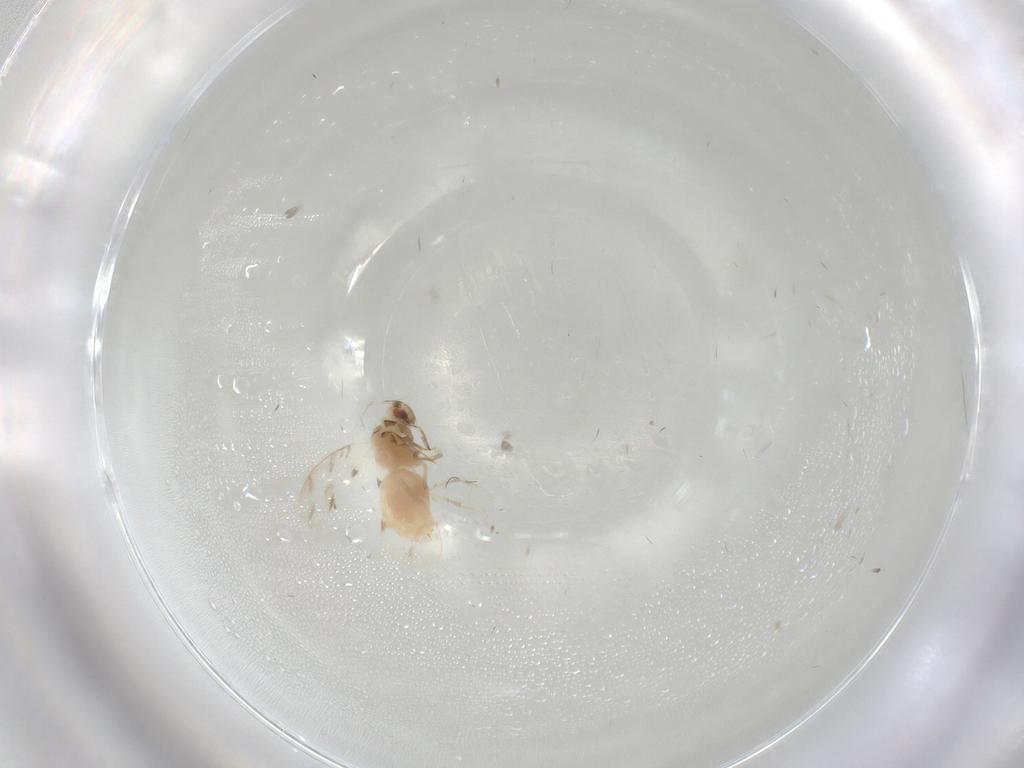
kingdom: Animalia
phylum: Arthropoda
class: Insecta
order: Hemiptera
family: Aleyrodidae
